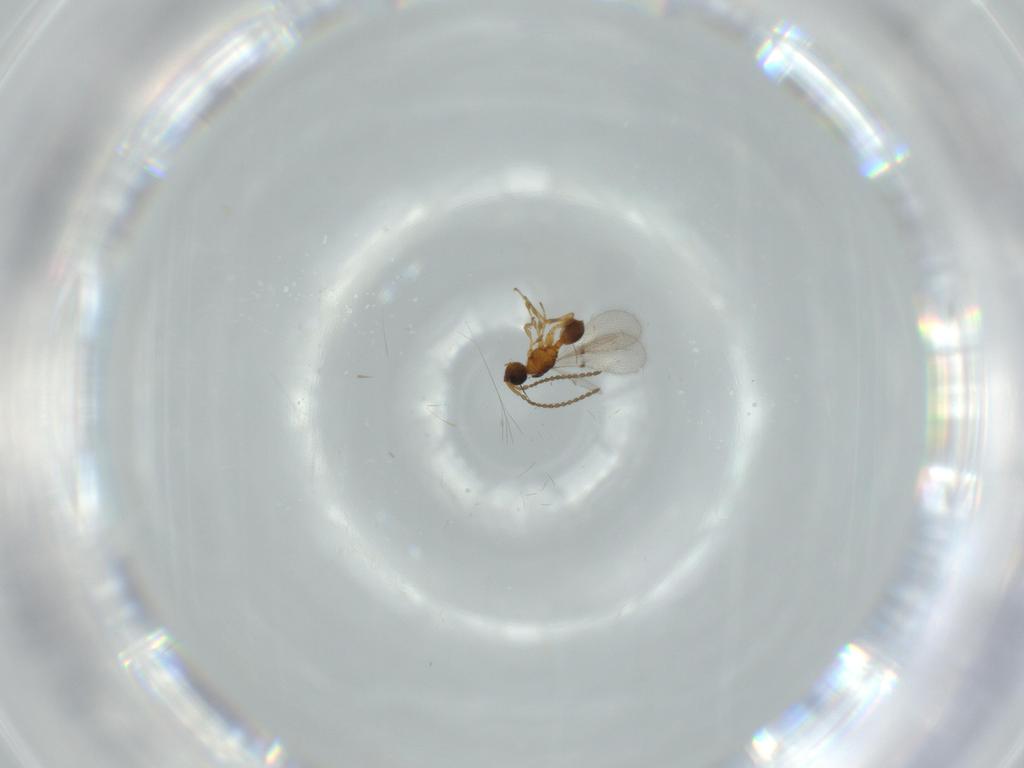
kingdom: Animalia
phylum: Arthropoda
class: Insecta
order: Hymenoptera
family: Diapriidae
